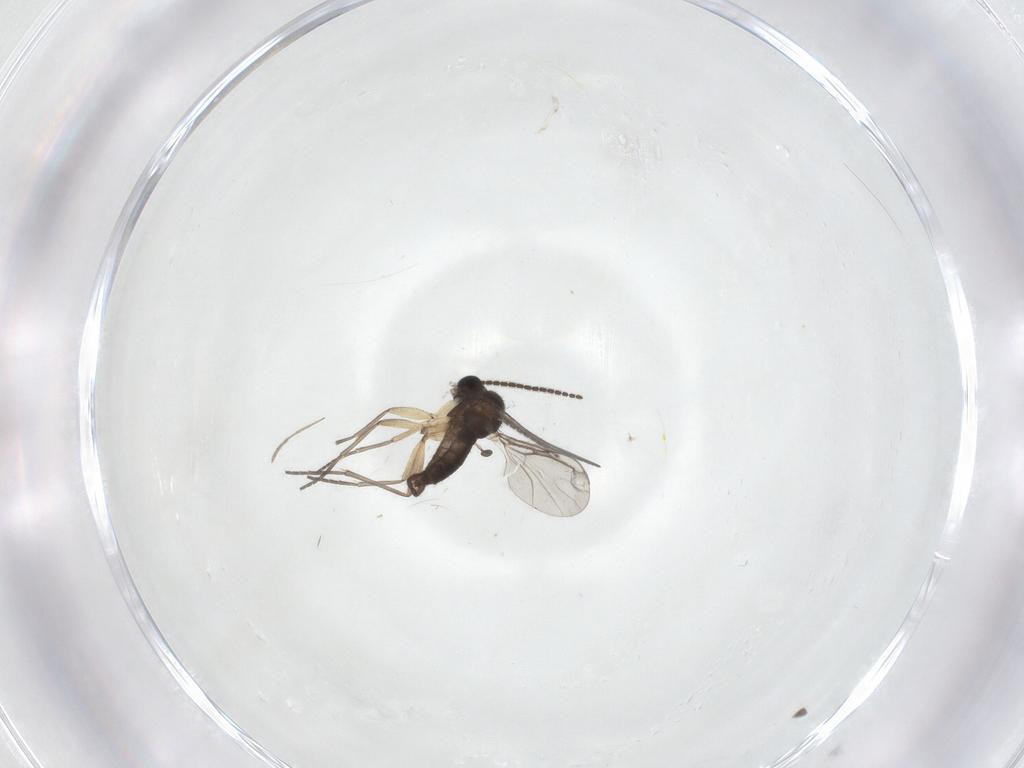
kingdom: Animalia
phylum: Arthropoda
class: Insecta
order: Diptera
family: Sciaridae
